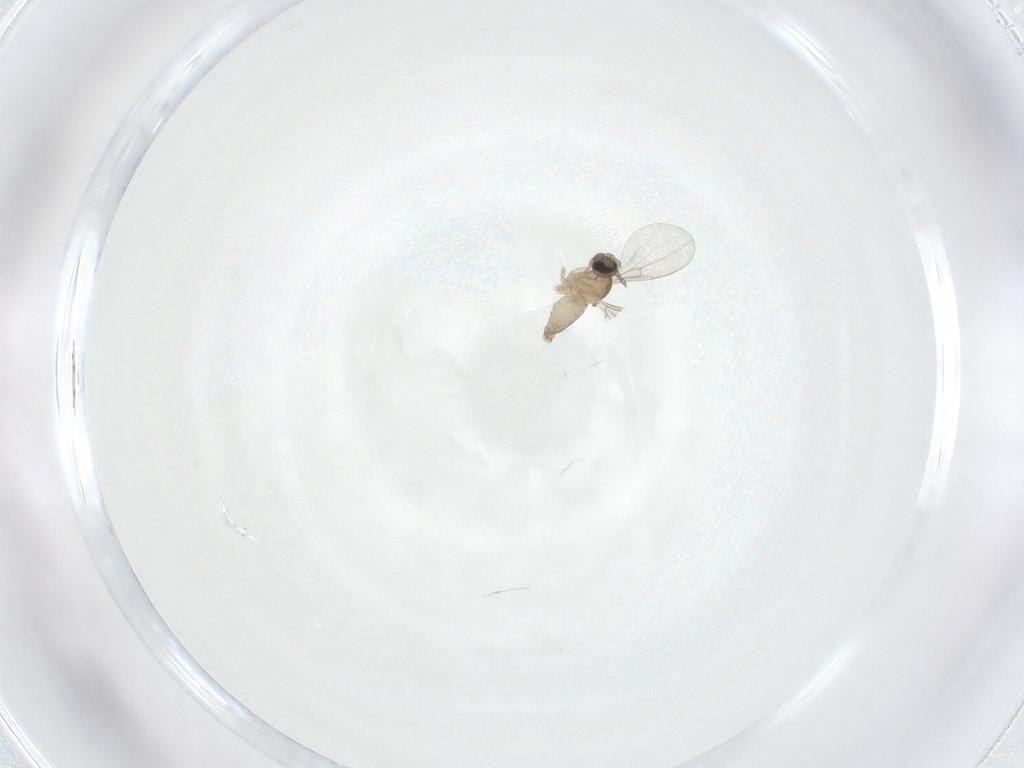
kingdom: Animalia
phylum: Arthropoda
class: Insecta
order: Diptera
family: Cecidomyiidae
